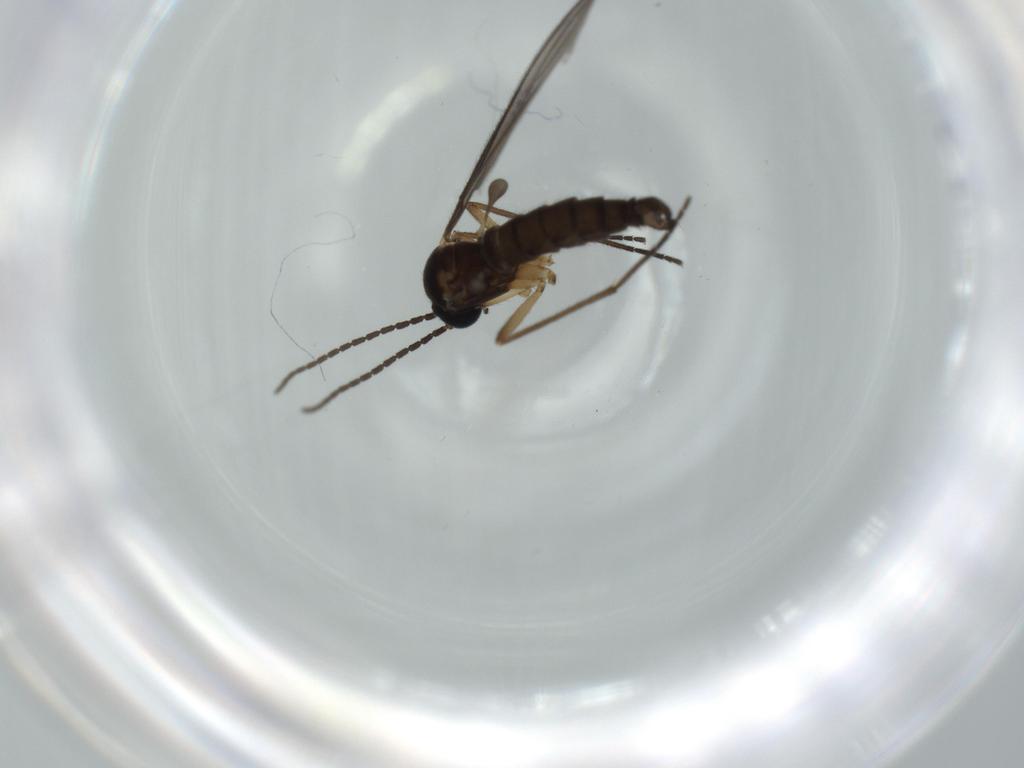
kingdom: Animalia
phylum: Arthropoda
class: Insecta
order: Diptera
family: Sciaridae
